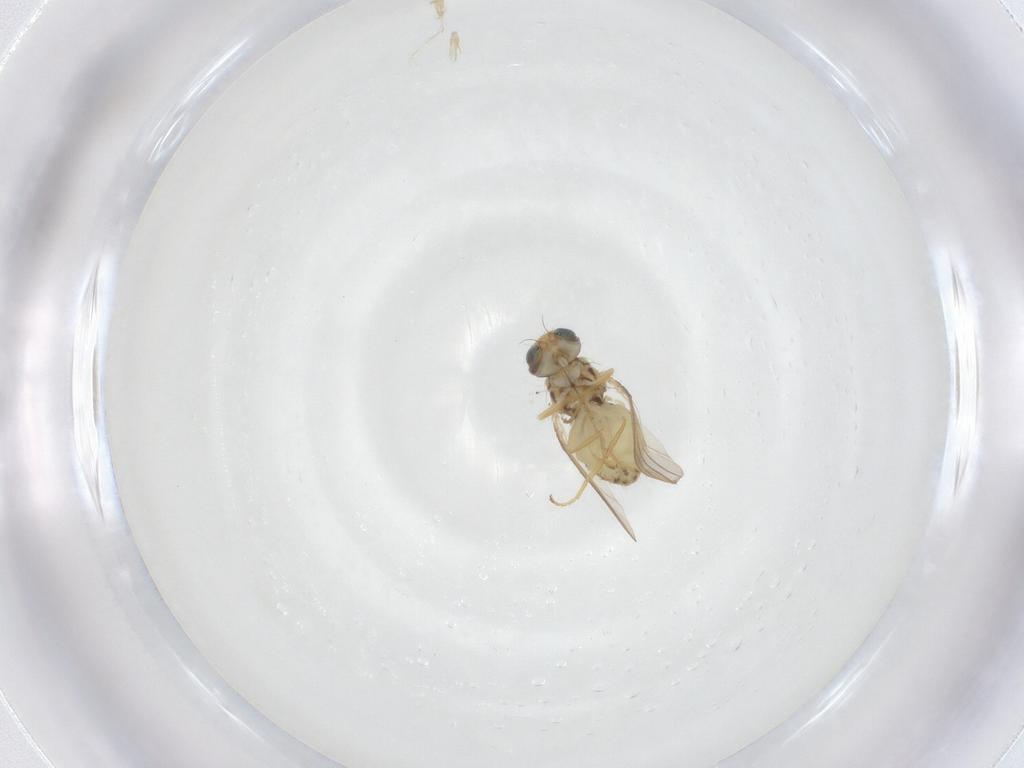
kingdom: Animalia
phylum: Arthropoda
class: Insecta
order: Diptera
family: Chyromyidae
